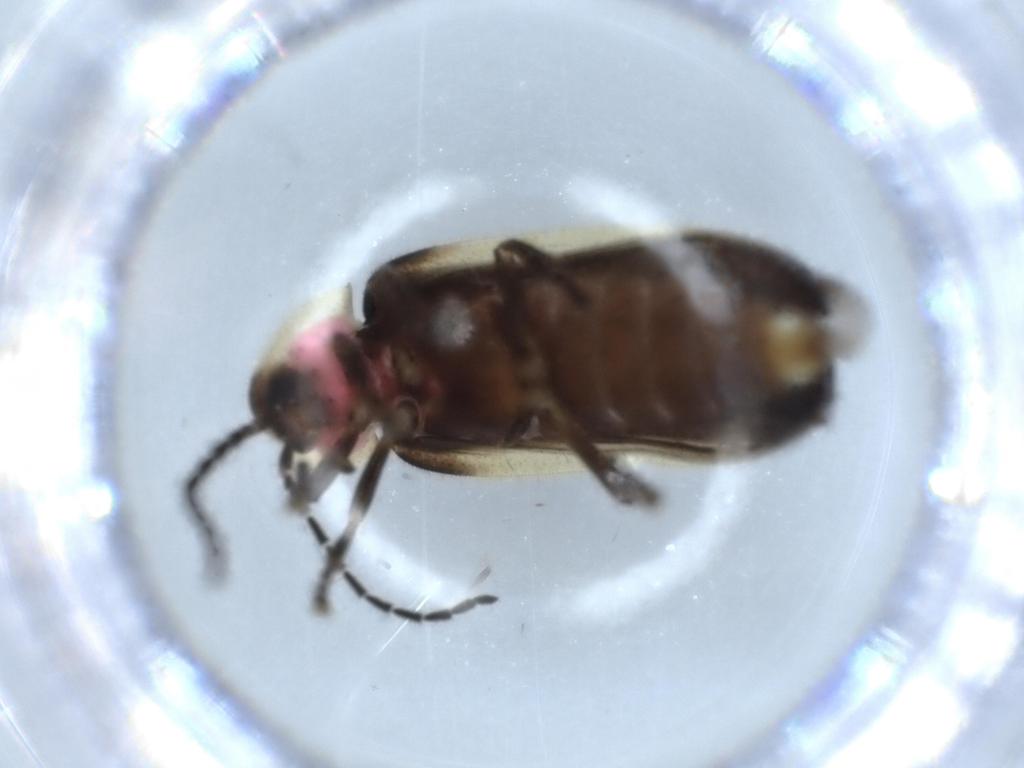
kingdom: Animalia
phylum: Arthropoda
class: Insecta
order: Coleoptera
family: Lampyridae
